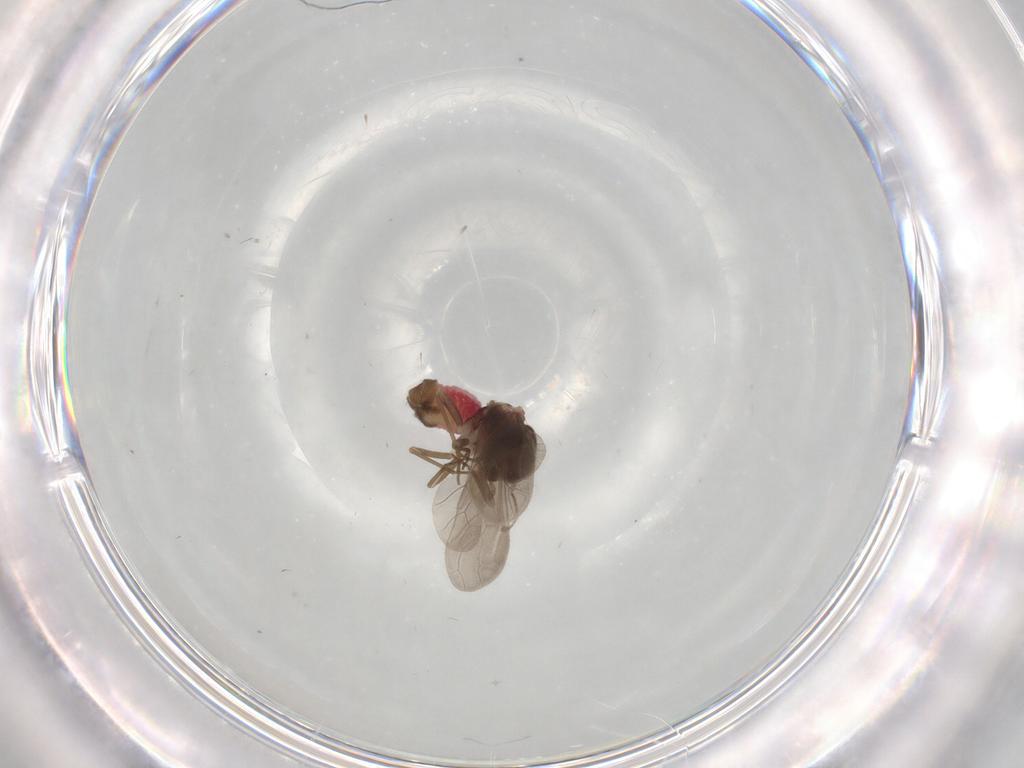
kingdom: Animalia
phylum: Arthropoda
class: Insecta
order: Psocodea
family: Archipsocidae
